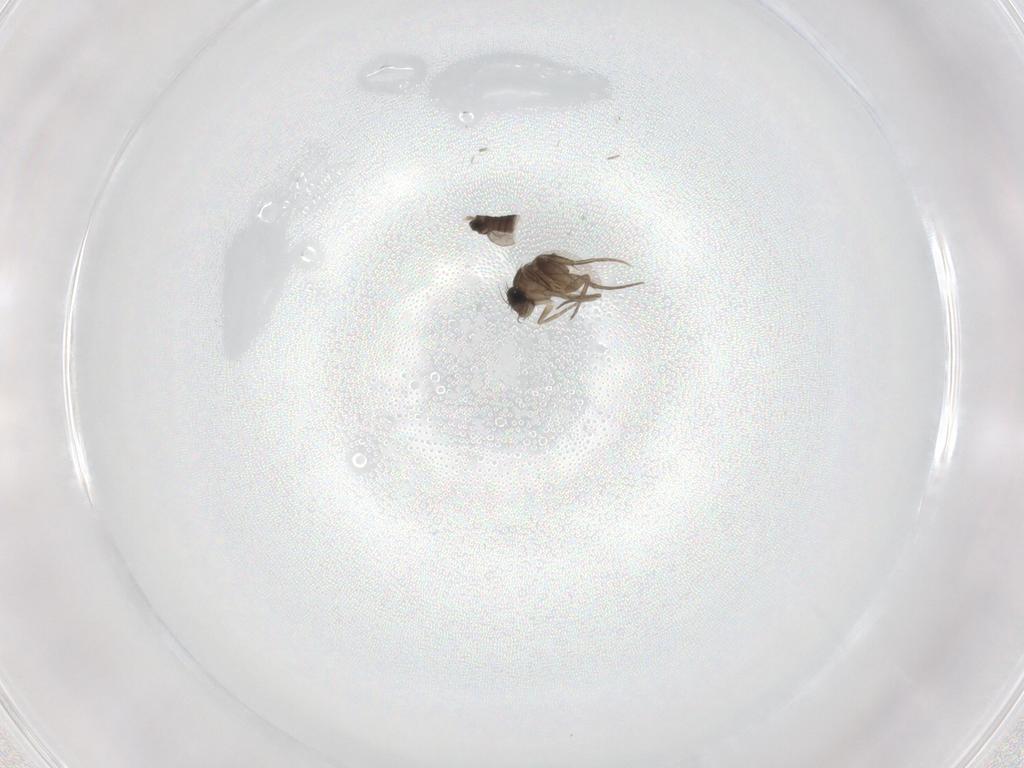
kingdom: Animalia
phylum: Arthropoda
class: Insecta
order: Diptera
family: Phoridae
